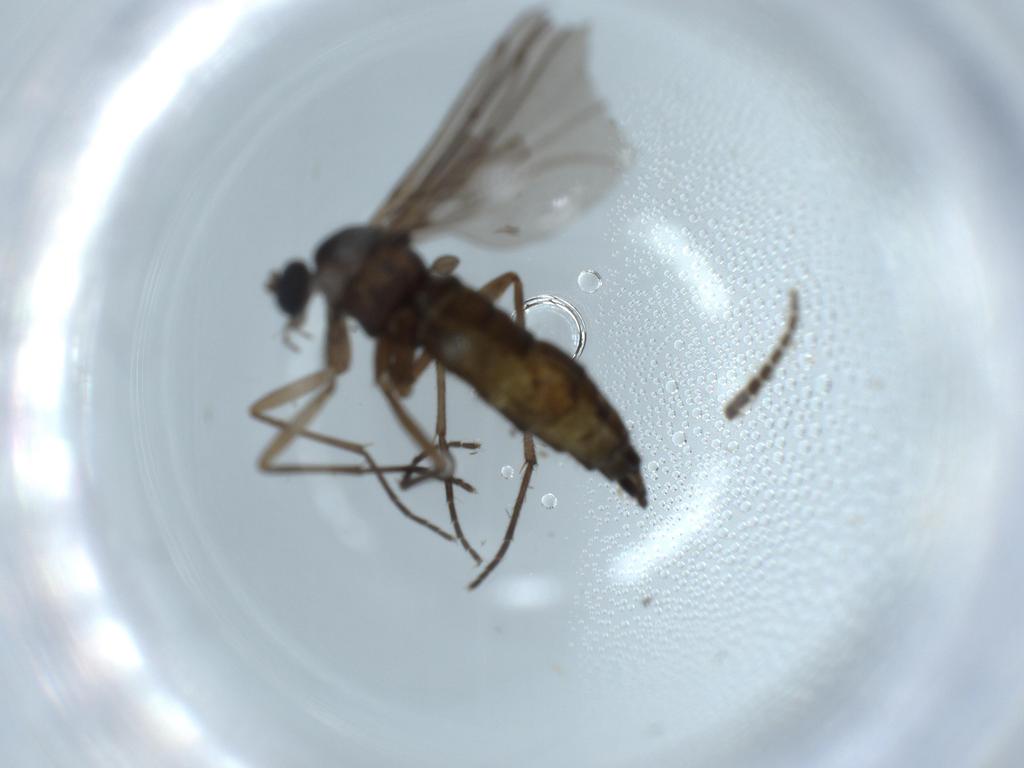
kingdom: Animalia
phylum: Arthropoda
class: Insecta
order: Diptera
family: Sciaridae
